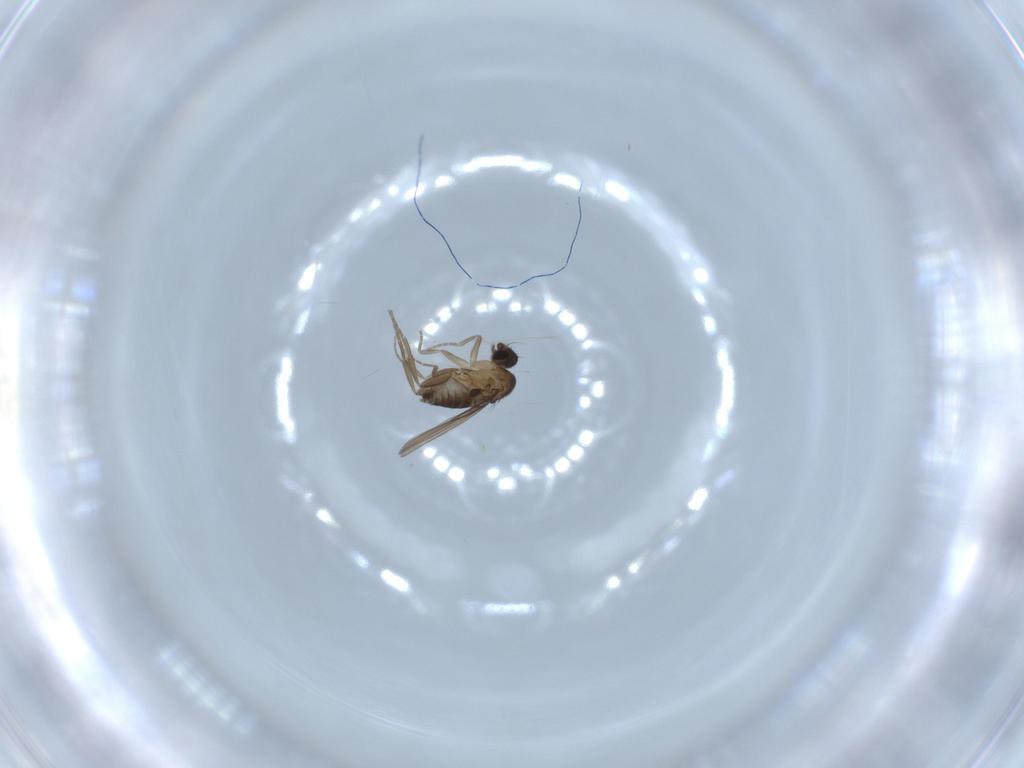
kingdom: Animalia
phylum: Arthropoda
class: Insecta
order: Diptera
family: Phoridae
